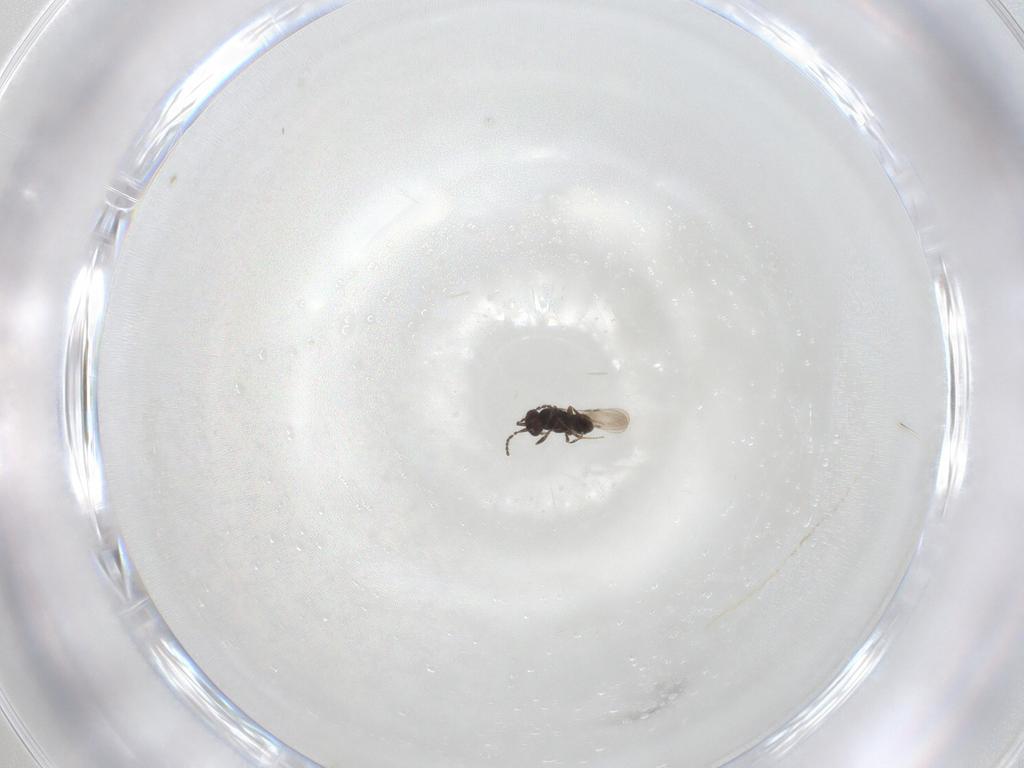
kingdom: Animalia
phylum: Arthropoda
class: Insecta
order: Hymenoptera
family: Ceraphronidae
